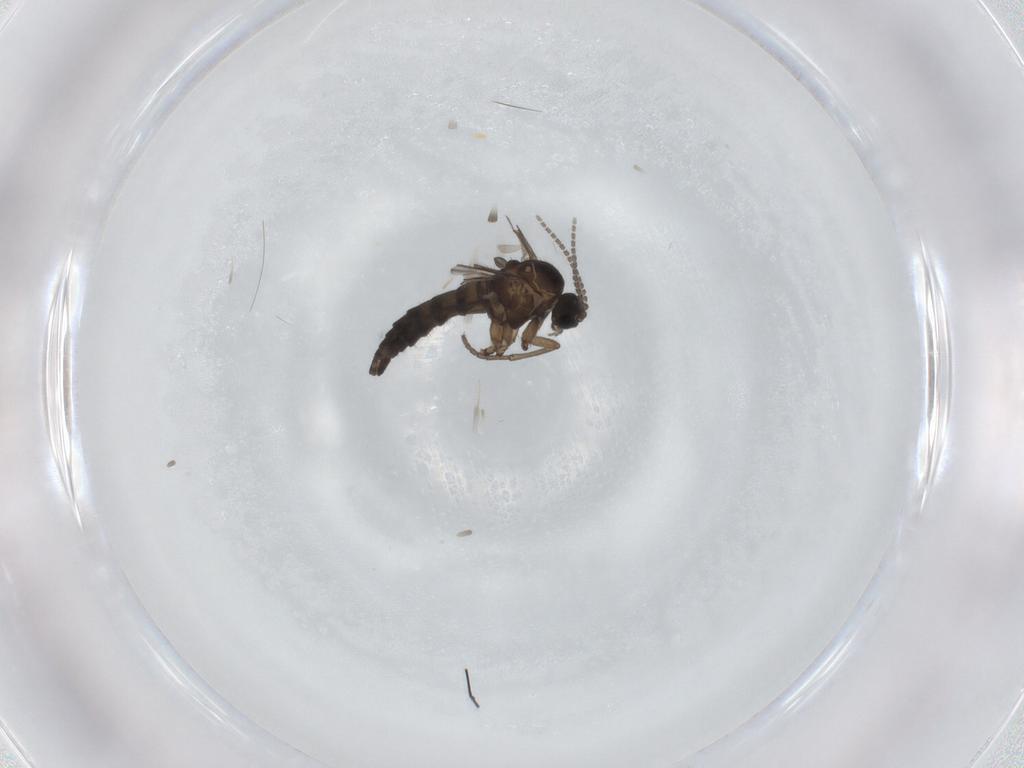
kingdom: Animalia
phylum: Arthropoda
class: Insecta
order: Diptera
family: Sciaridae
